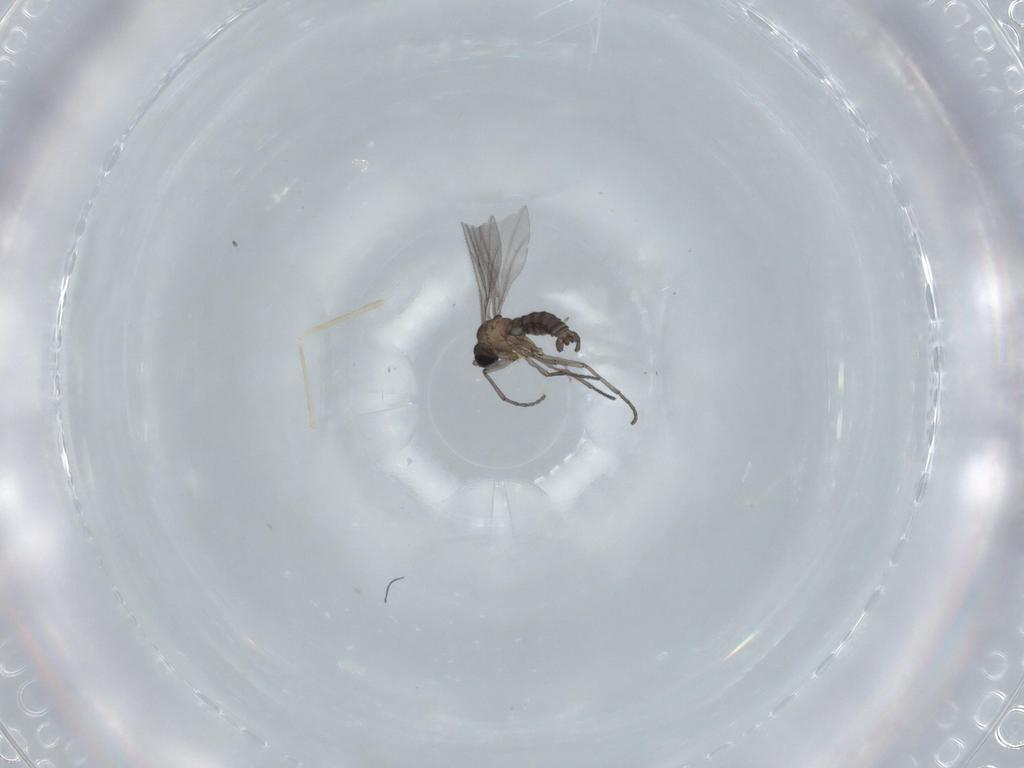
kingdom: Animalia
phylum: Arthropoda
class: Insecta
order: Diptera
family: Sciaridae
